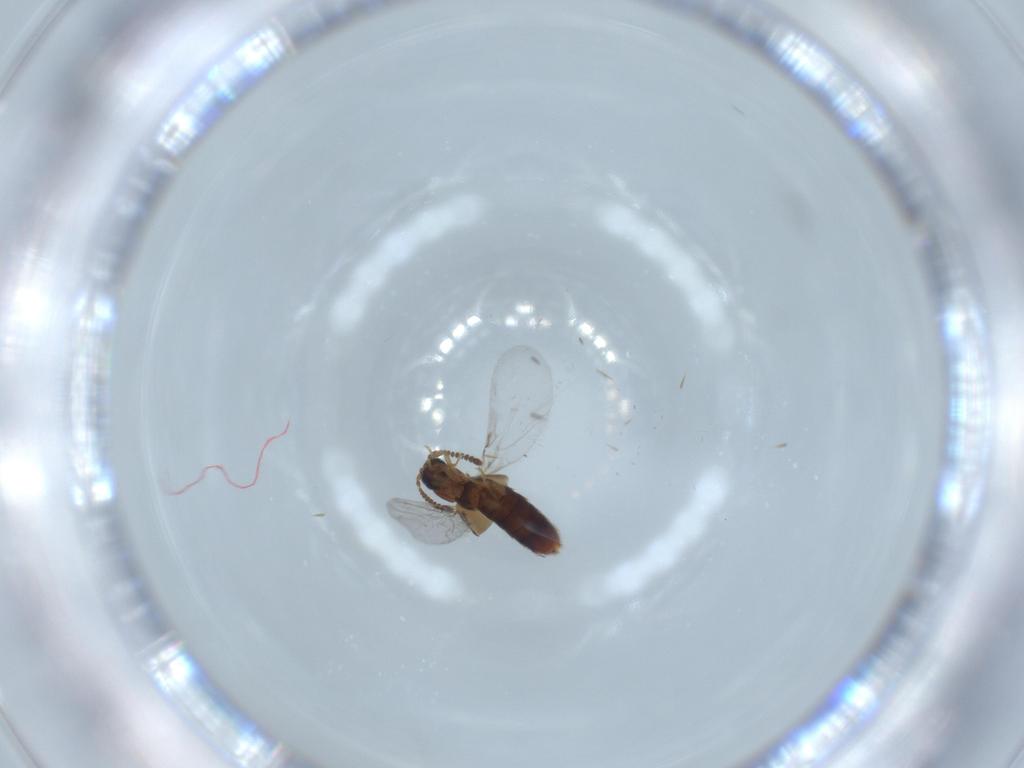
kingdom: Animalia
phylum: Arthropoda
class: Insecta
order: Coleoptera
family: Staphylinidae
